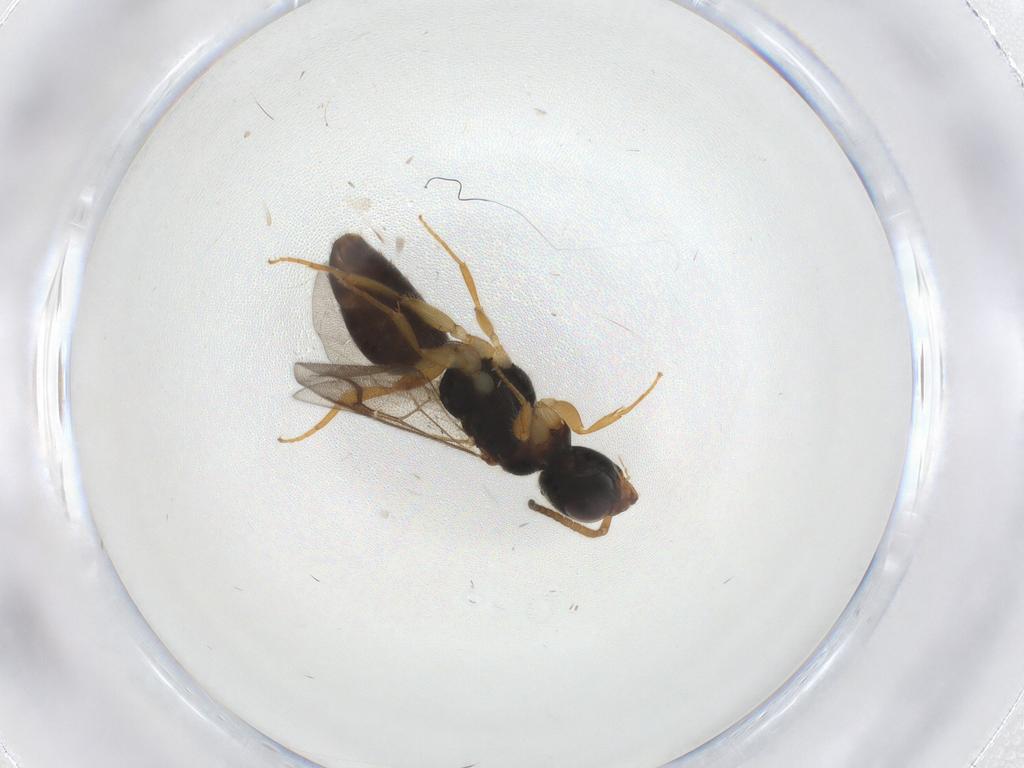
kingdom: Animalia
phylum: Arthropoda
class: Insecta
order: Hymenoptera
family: Bethylidae
